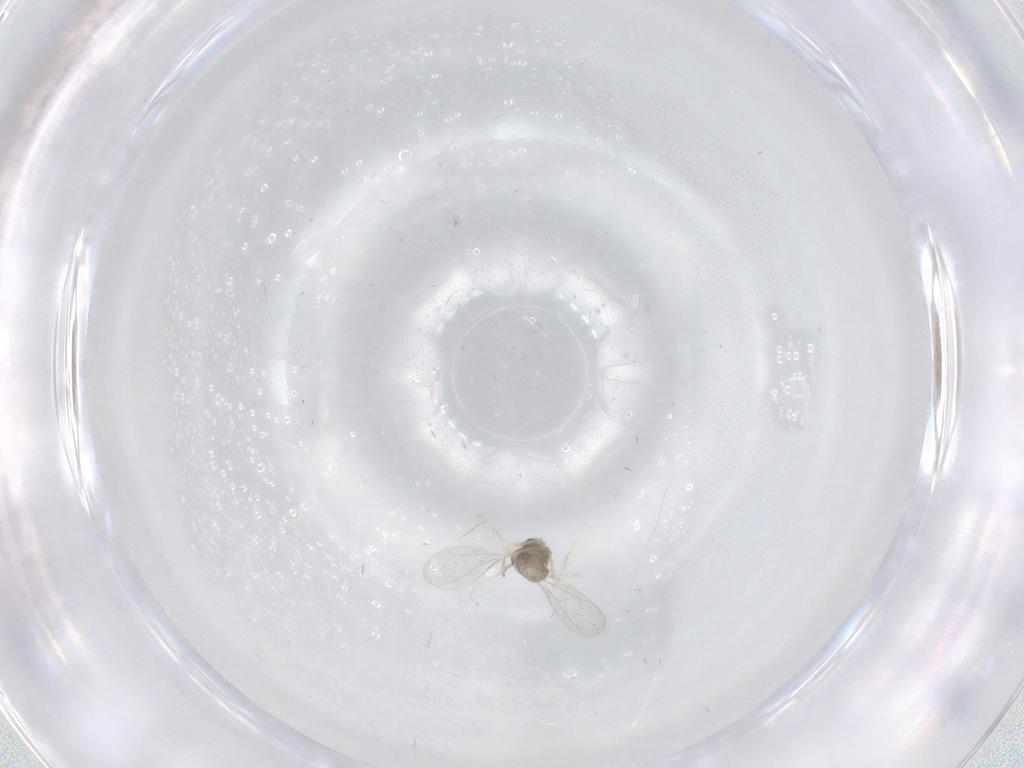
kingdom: Animalia
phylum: Arthropoda
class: Insecta
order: Diptera
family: Cecidomyiidae
